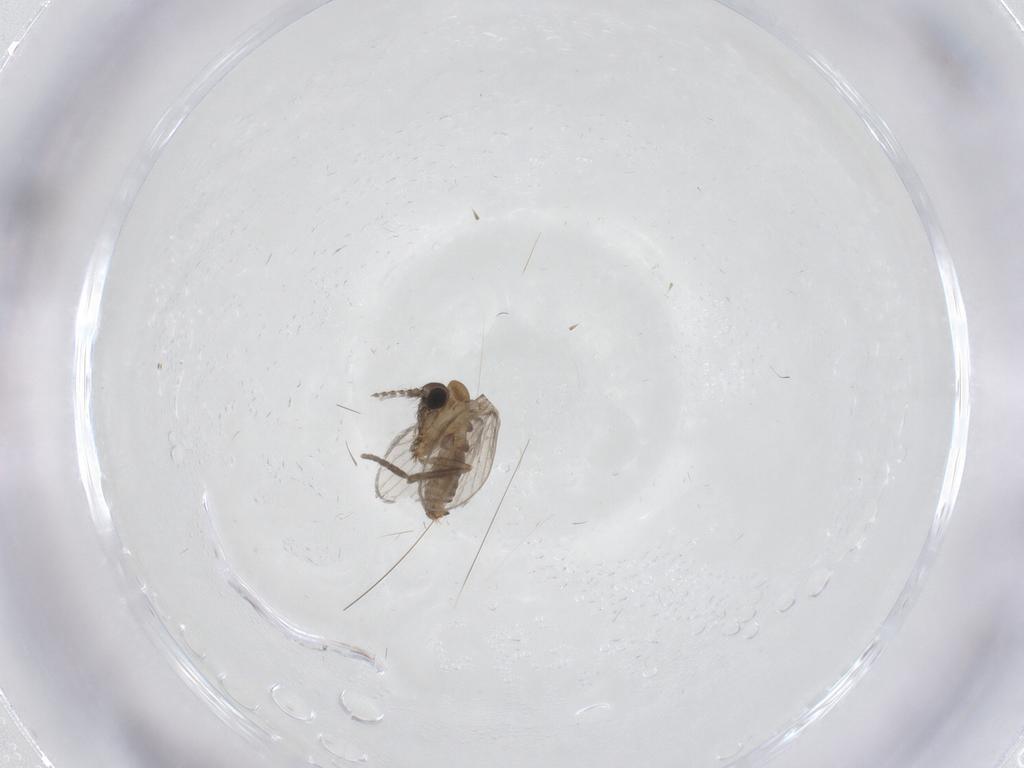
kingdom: Animalia
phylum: Arthropoda
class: Insecta
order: Diptera
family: Psychodidae
